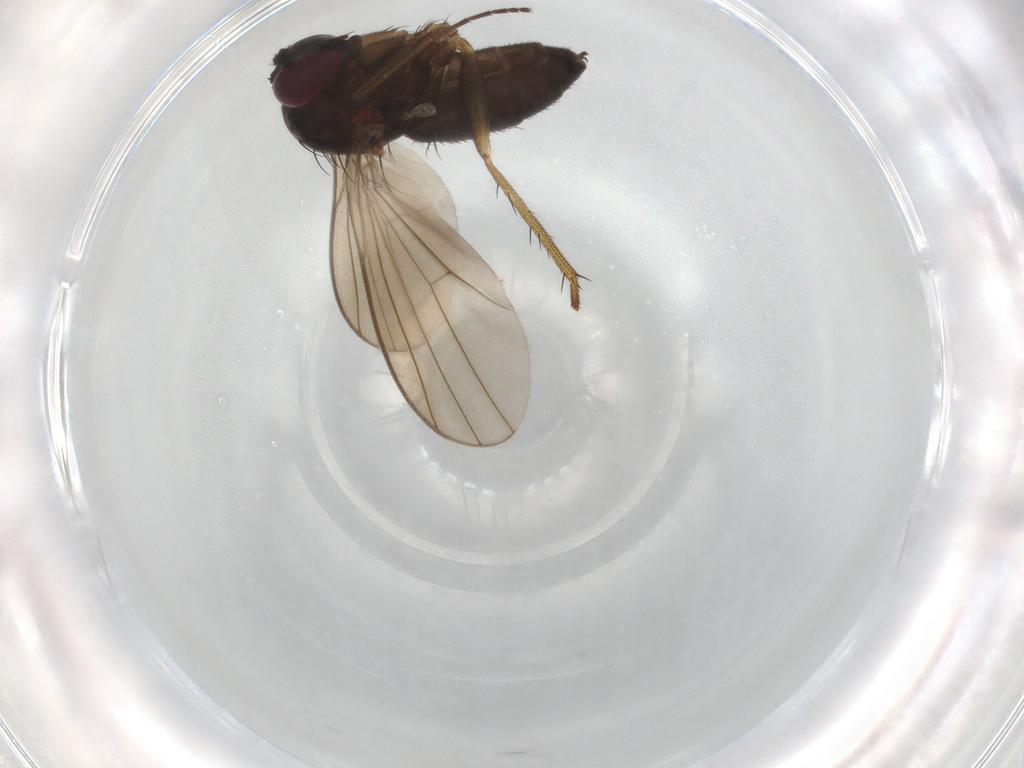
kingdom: Animalia
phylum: Arthropoda
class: Insecta
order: Diptera
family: Dolichopodidae
